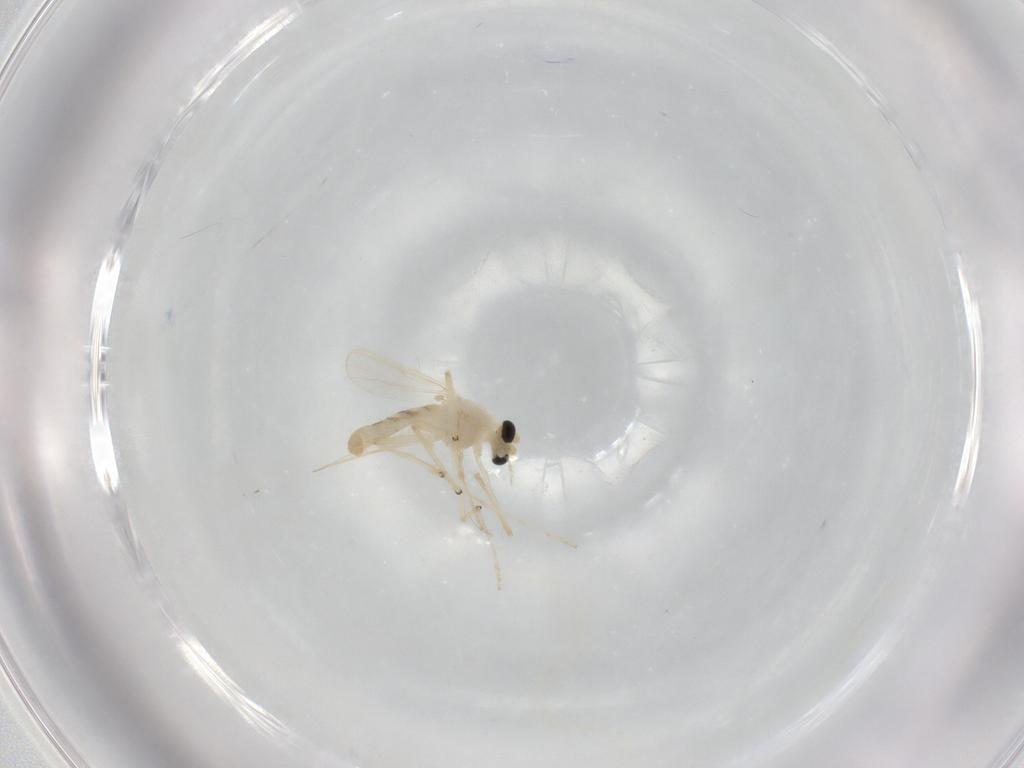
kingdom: Animalia
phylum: Arthropoda
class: Insecta
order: Diptera
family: Chironomidae
